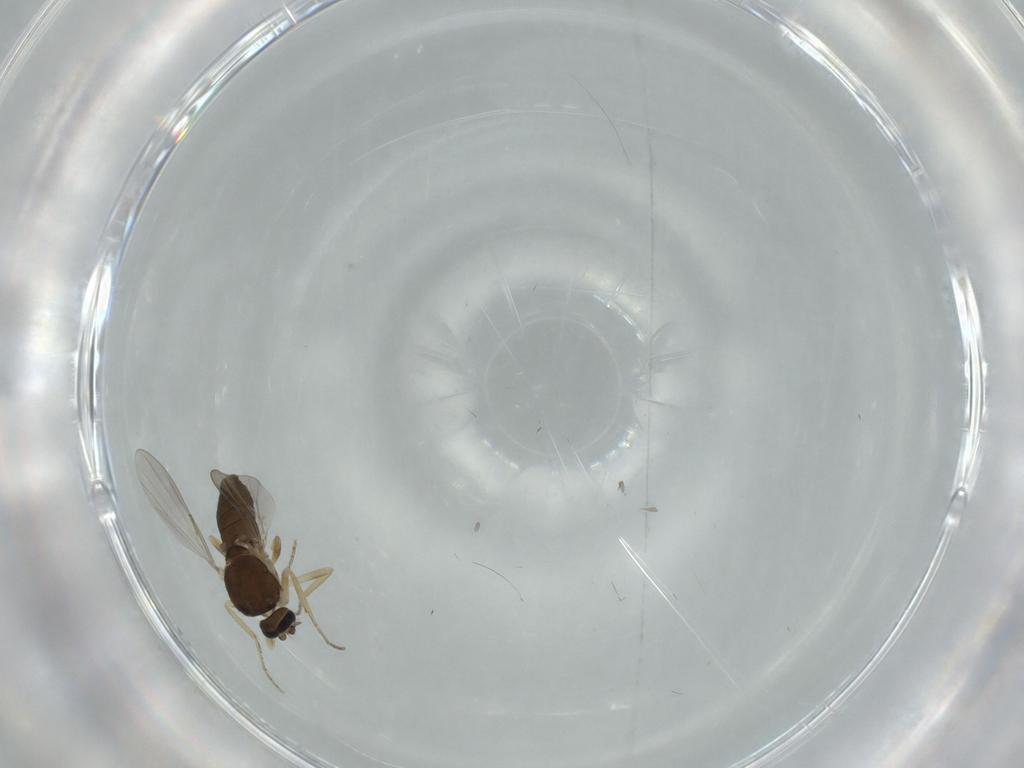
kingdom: Animalia
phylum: Arthropoda
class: Insecta
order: Diptera
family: Ceratopogonidae
